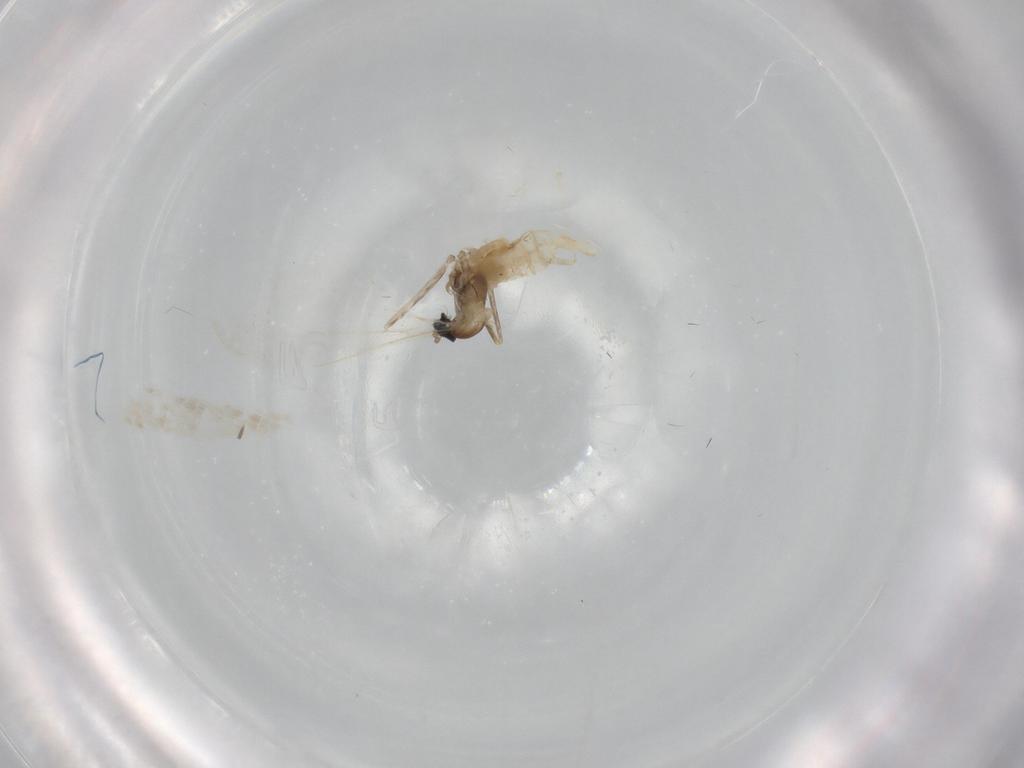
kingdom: Animalia
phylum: Arthropoda
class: Insecta
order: Diptera
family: Cecidomyiidae
